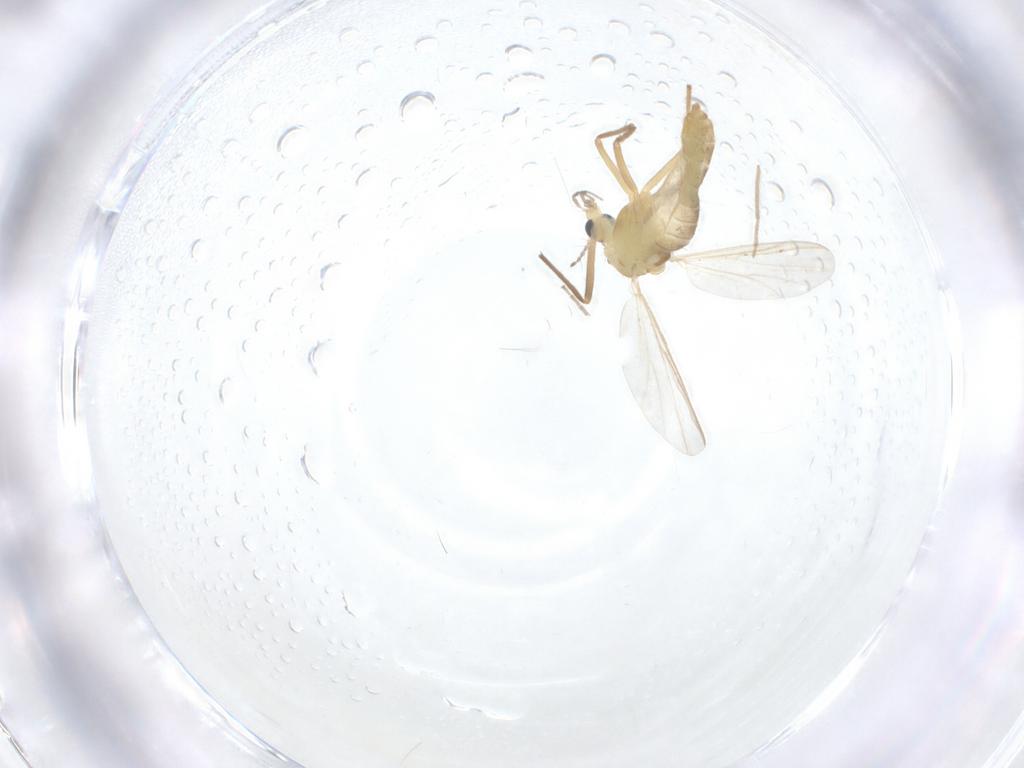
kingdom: Animalia
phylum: Arthropoda
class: Insecta
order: Diptera
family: Chironomidae
